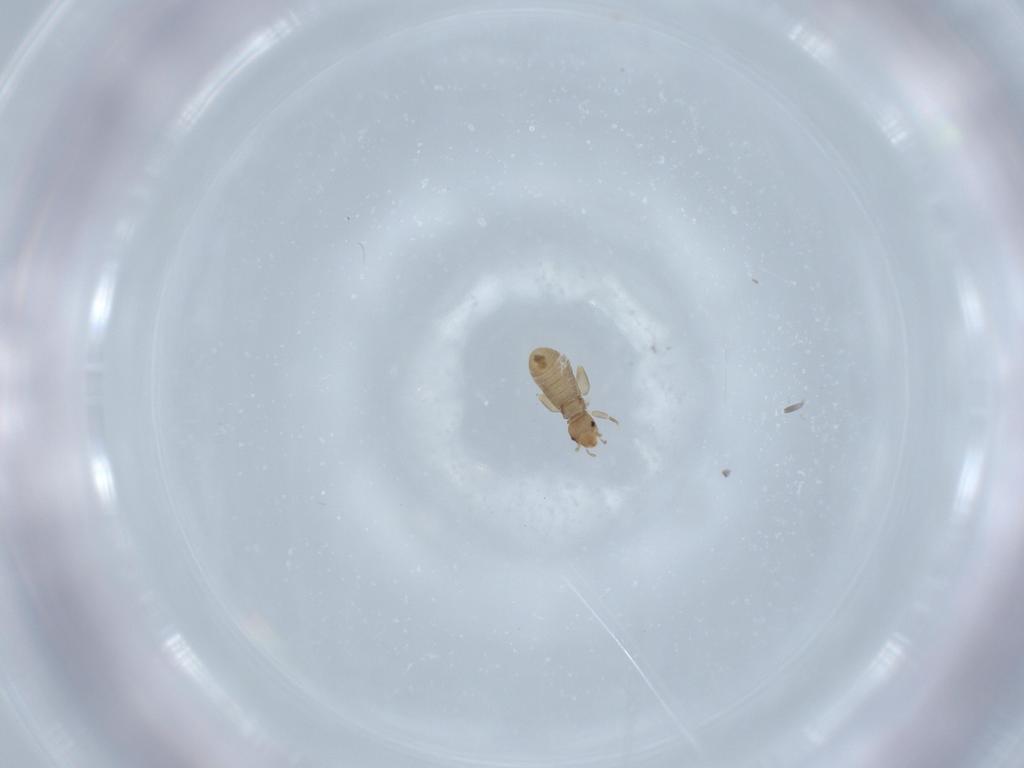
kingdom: Animalia
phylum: Arthropoda
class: Insecta
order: Psocodea
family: Liposcelididae
